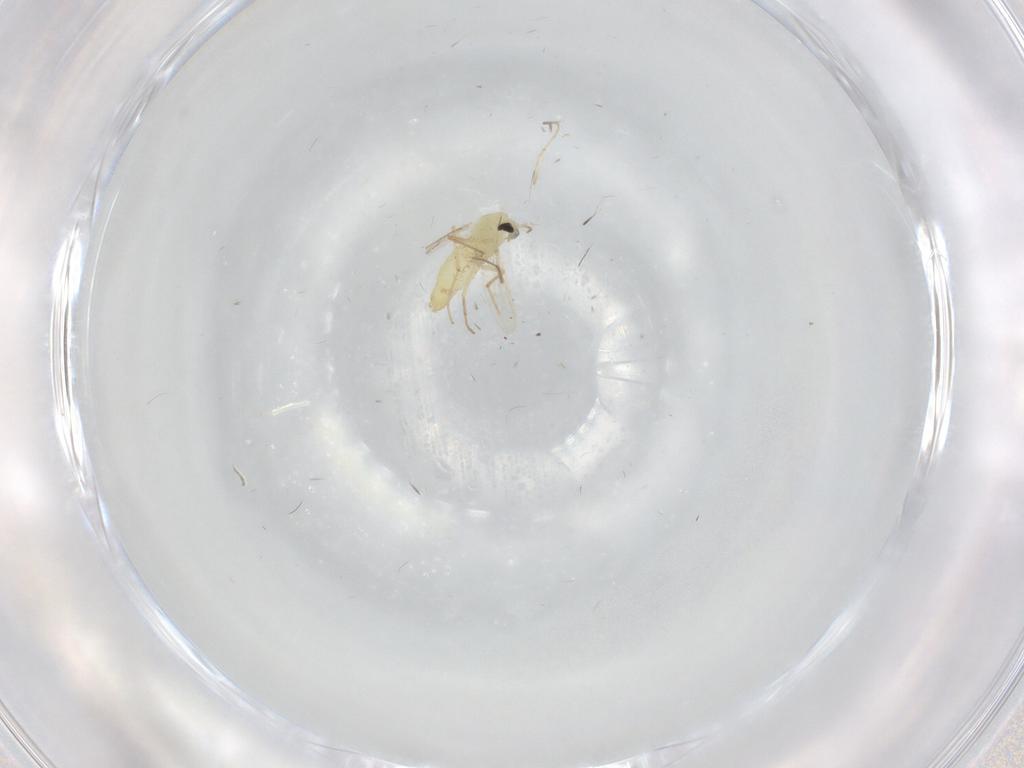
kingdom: Animalia
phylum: Arthropoda
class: Insecta
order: Diptera
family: Chironomidae
